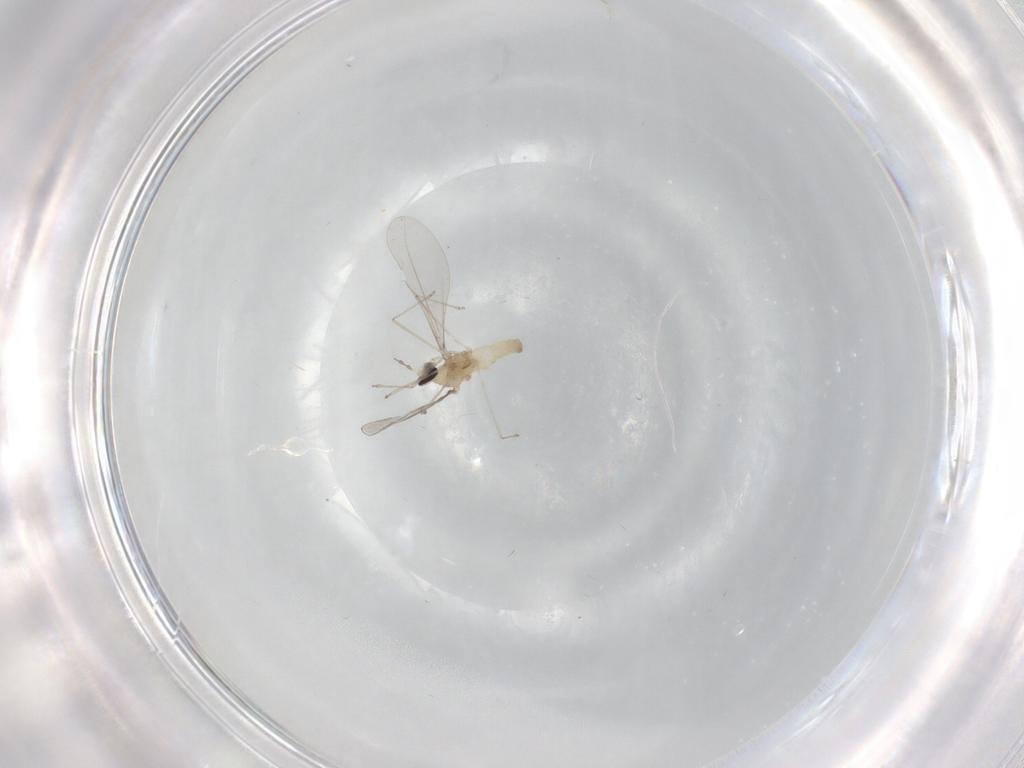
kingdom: Animalia
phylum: Arthropoda
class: Insecta
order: Diptera
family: Cecidomyiidae
